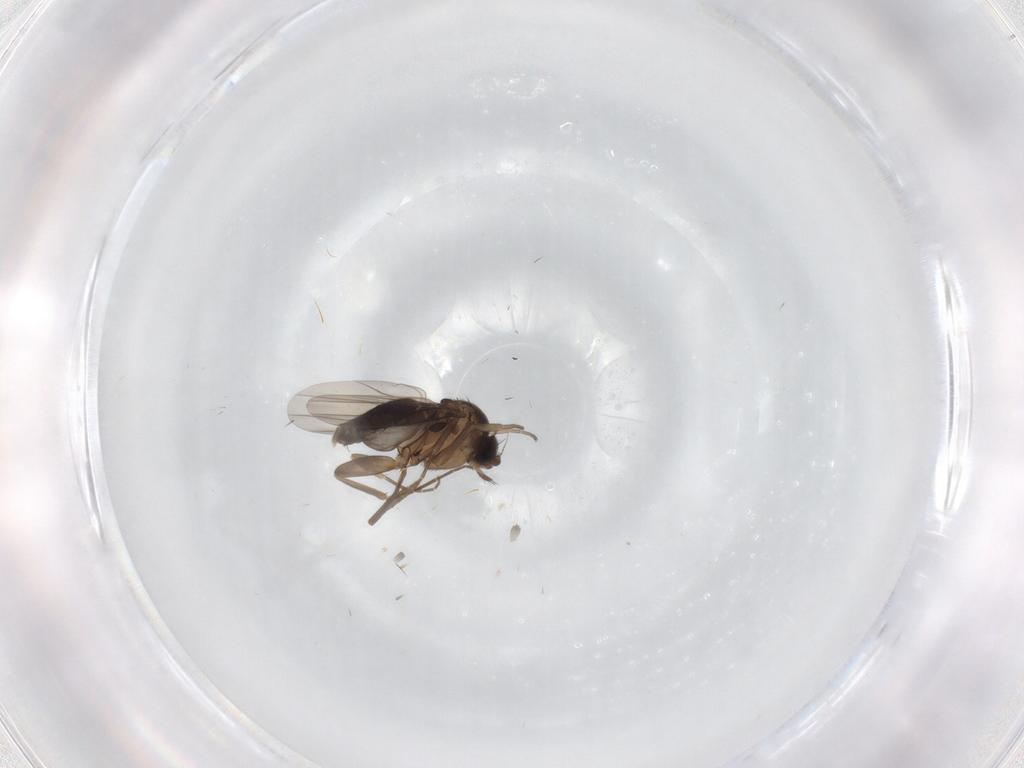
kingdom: Animalia
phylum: Arthropoda
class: Insecta
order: Diptera
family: Phoridae
